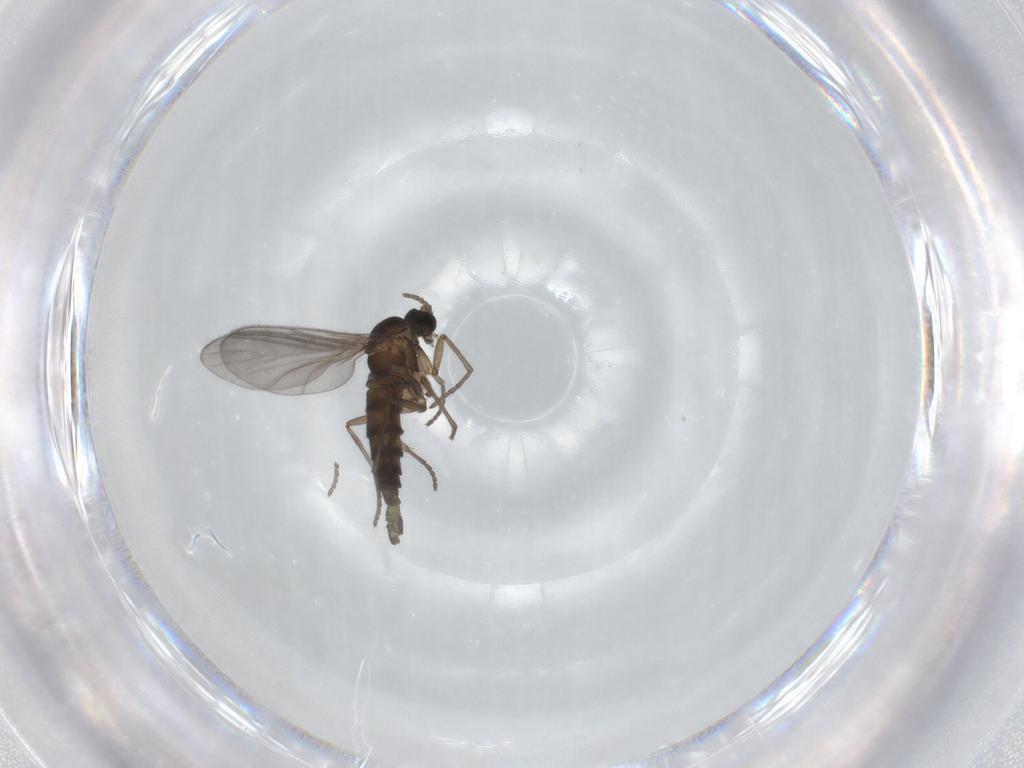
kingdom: Animalia
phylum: Arthropoda
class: Insecta
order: Diptera
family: Sciaridae
